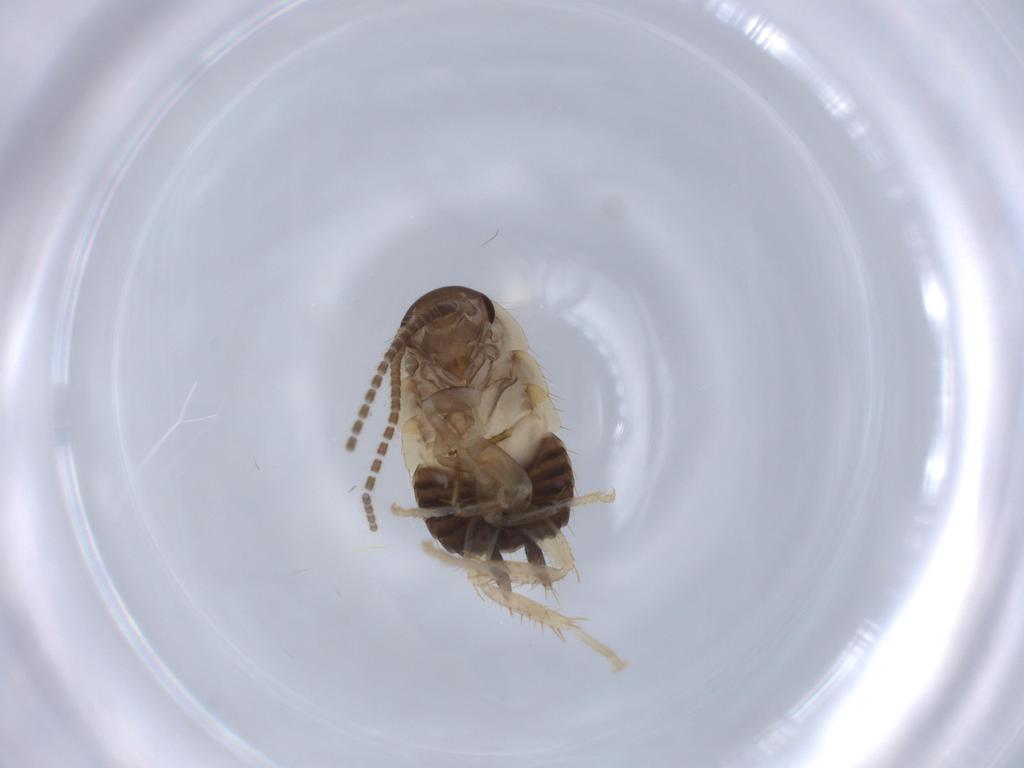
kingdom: Animalia
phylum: Arthropoda
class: Insecta
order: Blattodea
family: Ectobiidae
